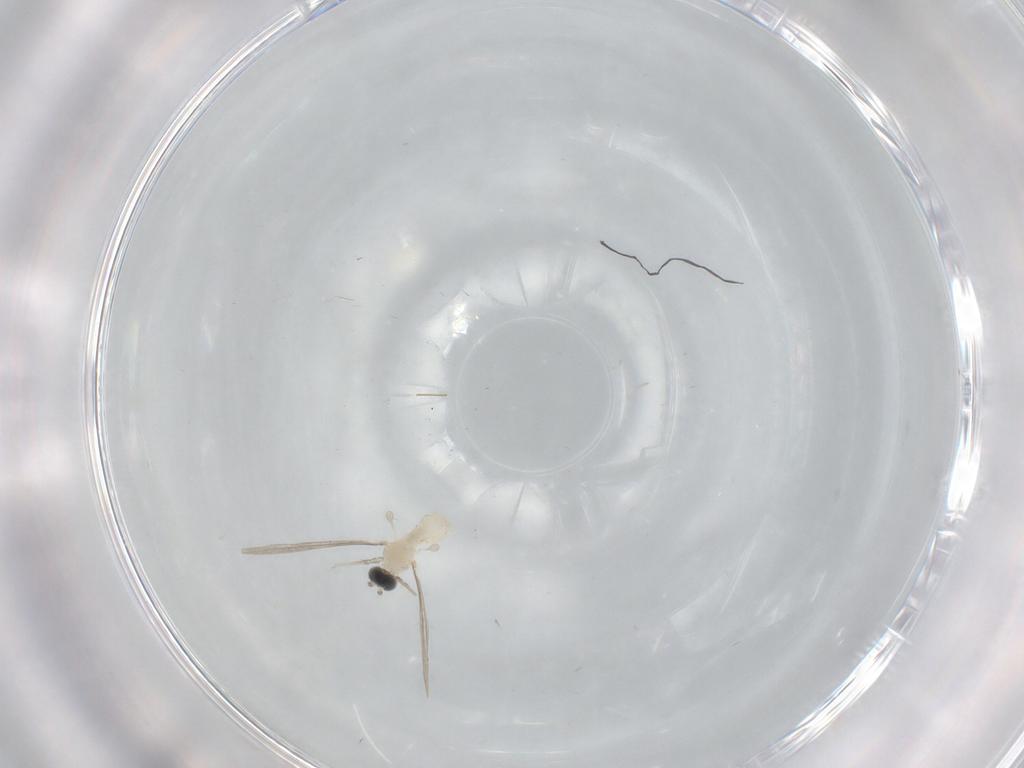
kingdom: Animalia
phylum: Arthropoda
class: Insecta
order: Diptera
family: Cecidomyiidae
